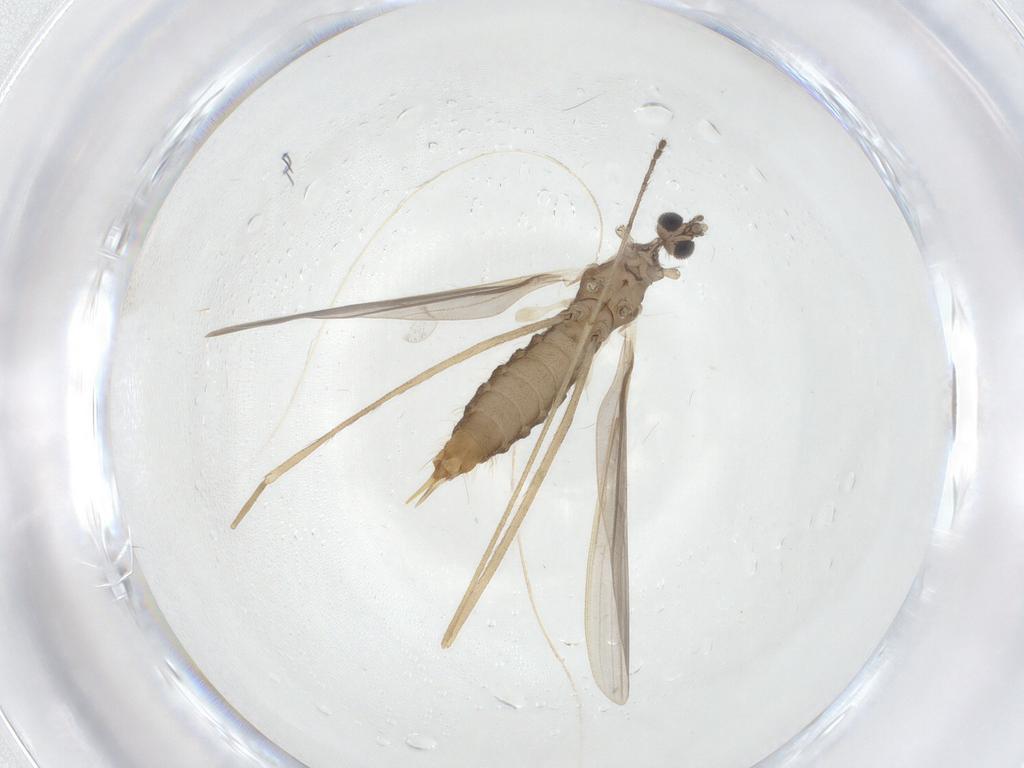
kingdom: Animalia
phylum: Arthropoda
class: Insecta
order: Diptera
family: Limoniidae
